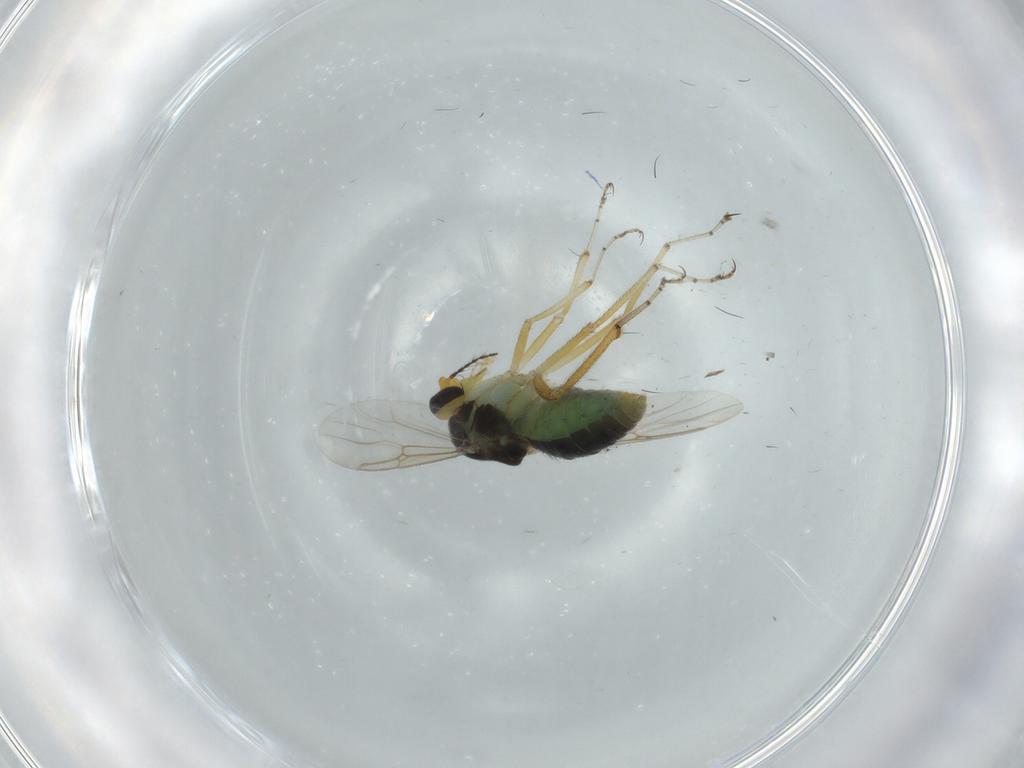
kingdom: Animalia
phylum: Arthropoda
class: Insecta
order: Diptera
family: Ceratopogonidae
